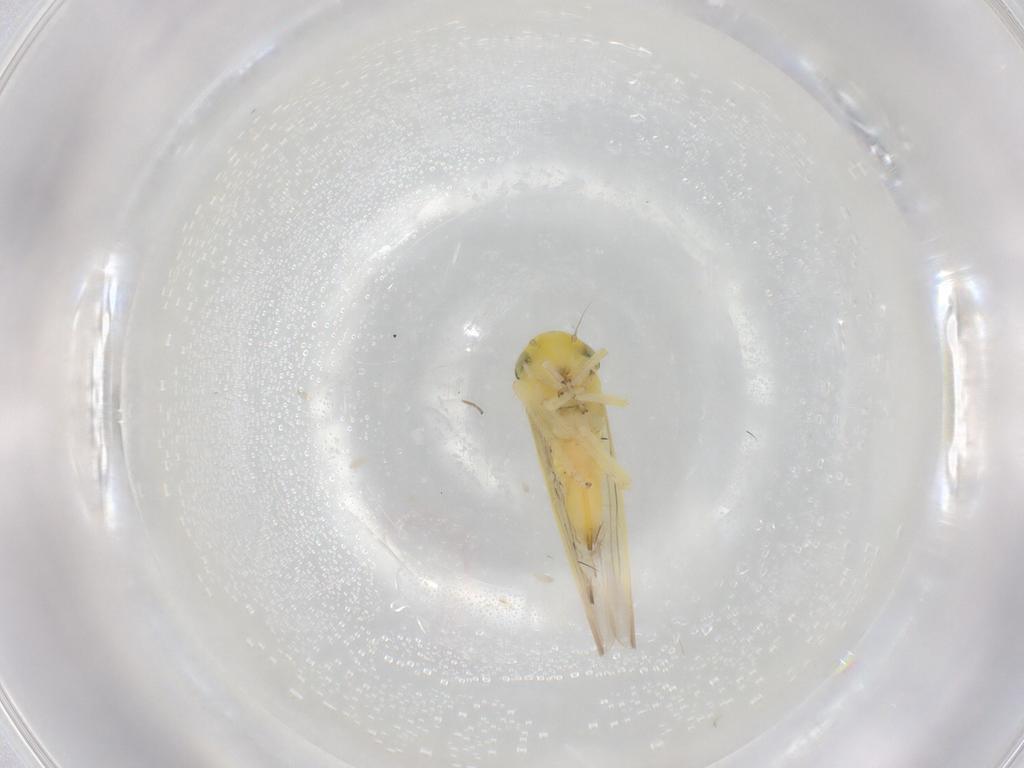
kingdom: Animalia
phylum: Arthropoda
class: Insecta
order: Hemiptera
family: Cicadellidae
